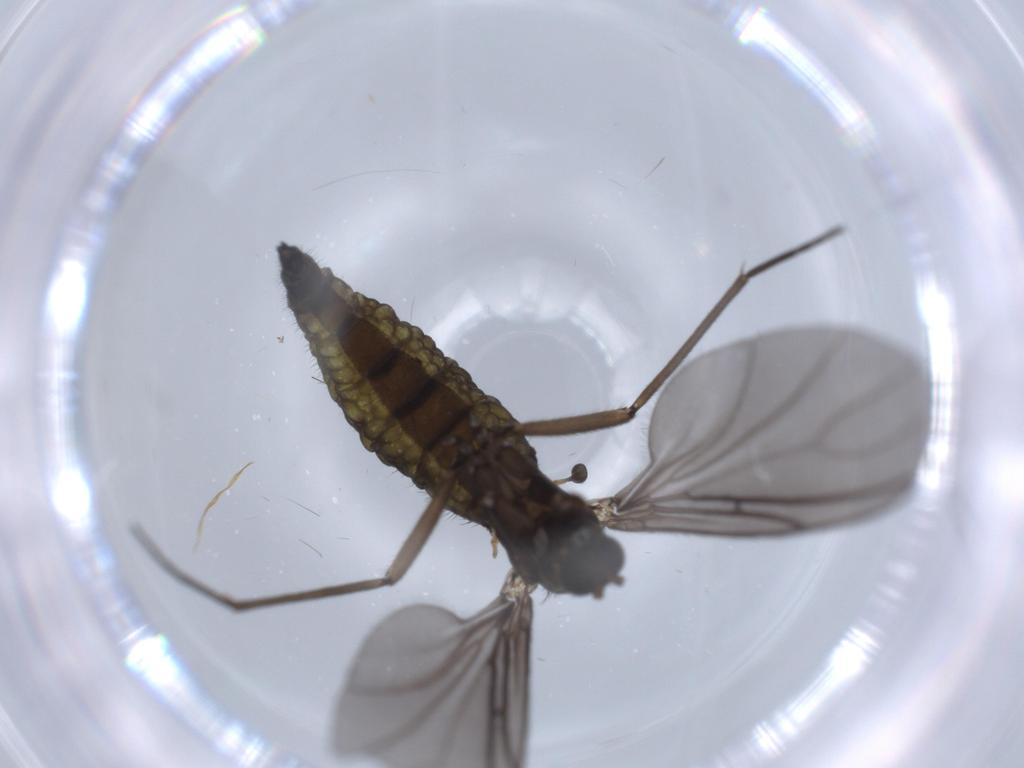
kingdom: Animalia
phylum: Arthropoda
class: Insecta
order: Diptera
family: Sciaridae
